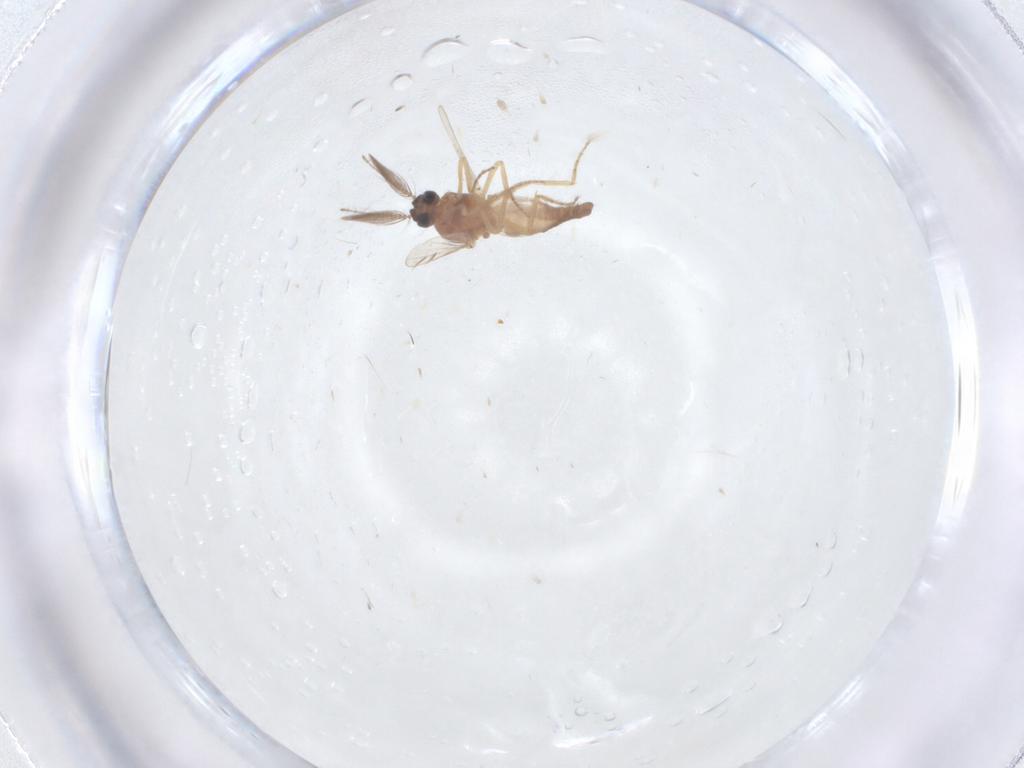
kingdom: Animalia
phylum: Arthropoda
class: Insecta
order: Diptera
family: Ceratopogonidae
